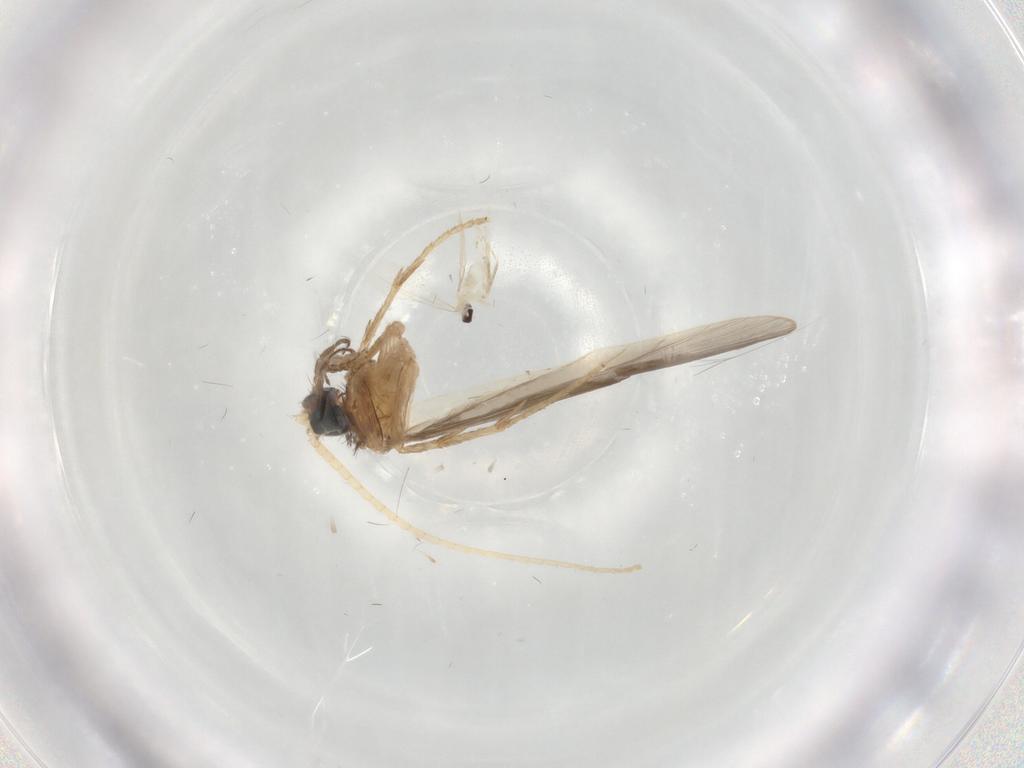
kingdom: Animalia
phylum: Arthropoda
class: Insecta
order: Trichoptera
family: Polycentropodidae
